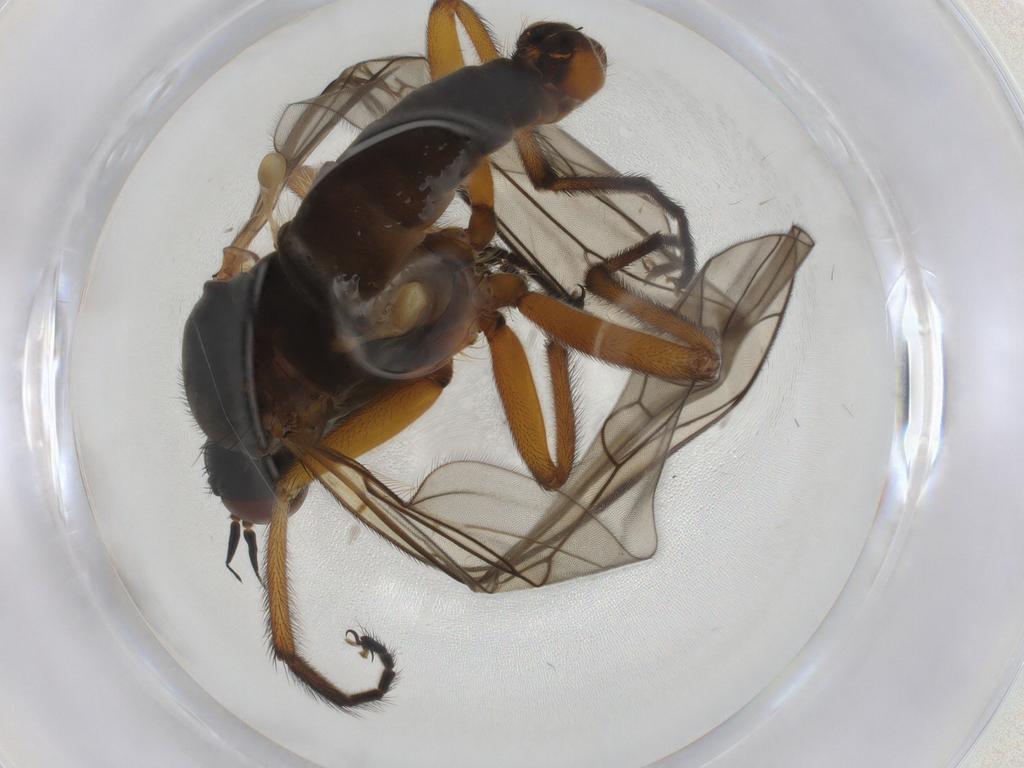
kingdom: Animalia
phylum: Arthropoda
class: Insecta
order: Diptera
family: Empididae
